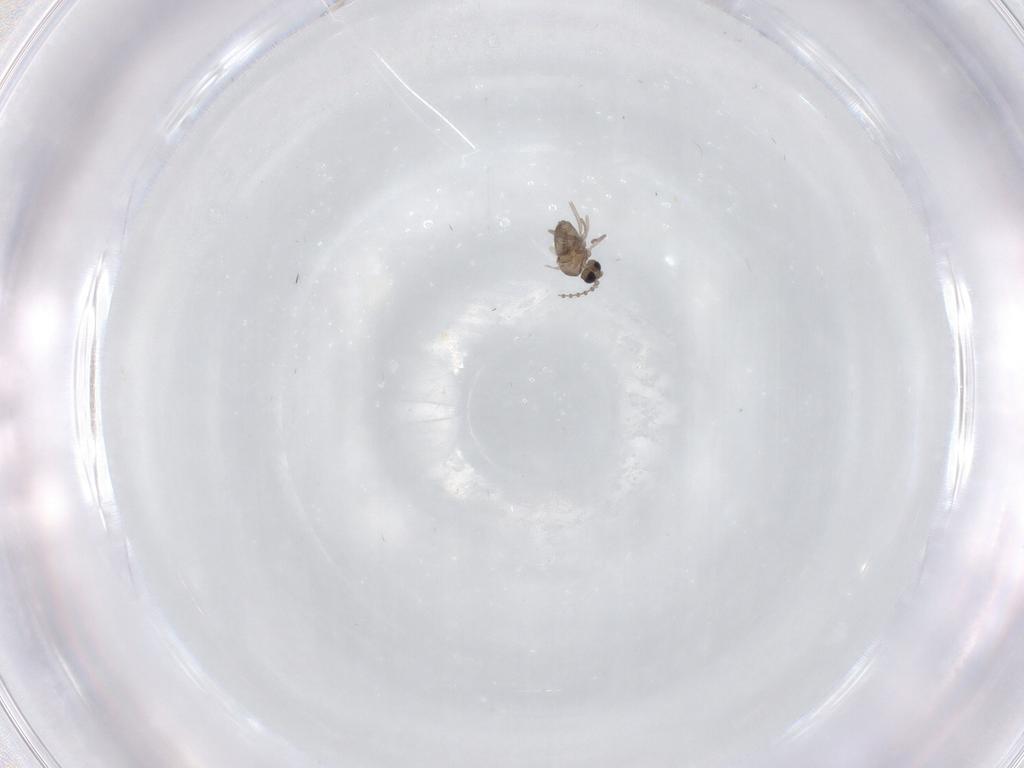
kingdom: Animalia
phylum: Arthropoda
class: Insecta
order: Diptera
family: Cecidomyiidae
